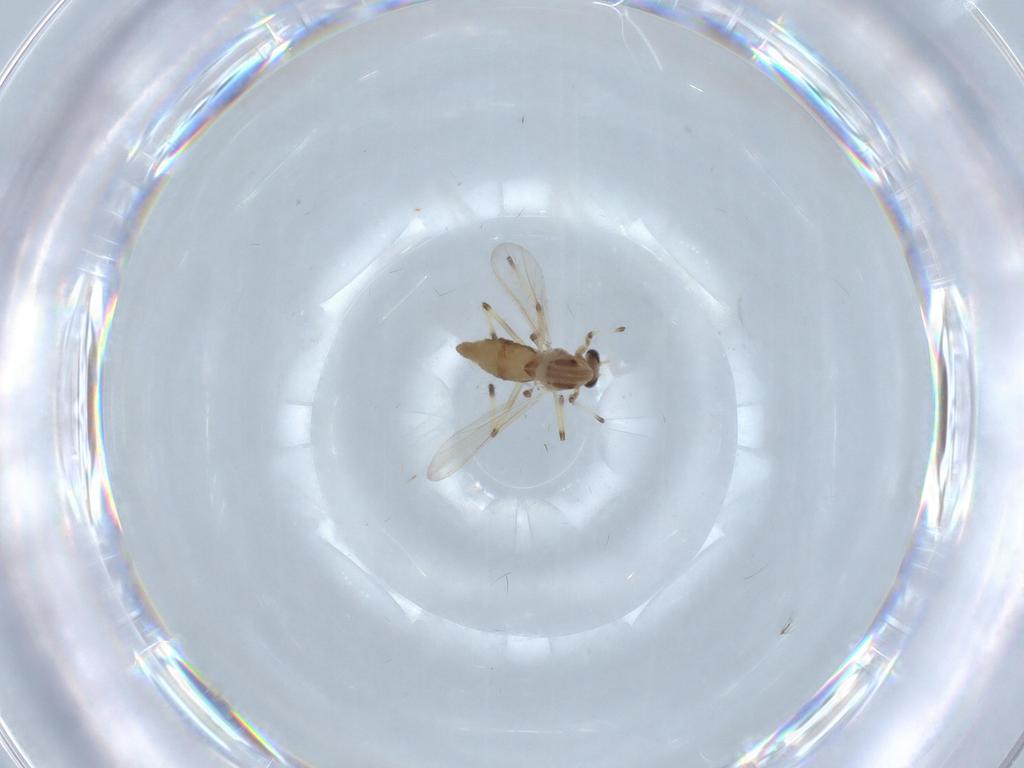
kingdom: Animalia
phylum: Arthropoda
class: Insecta
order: Diptera
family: Chironomidae
